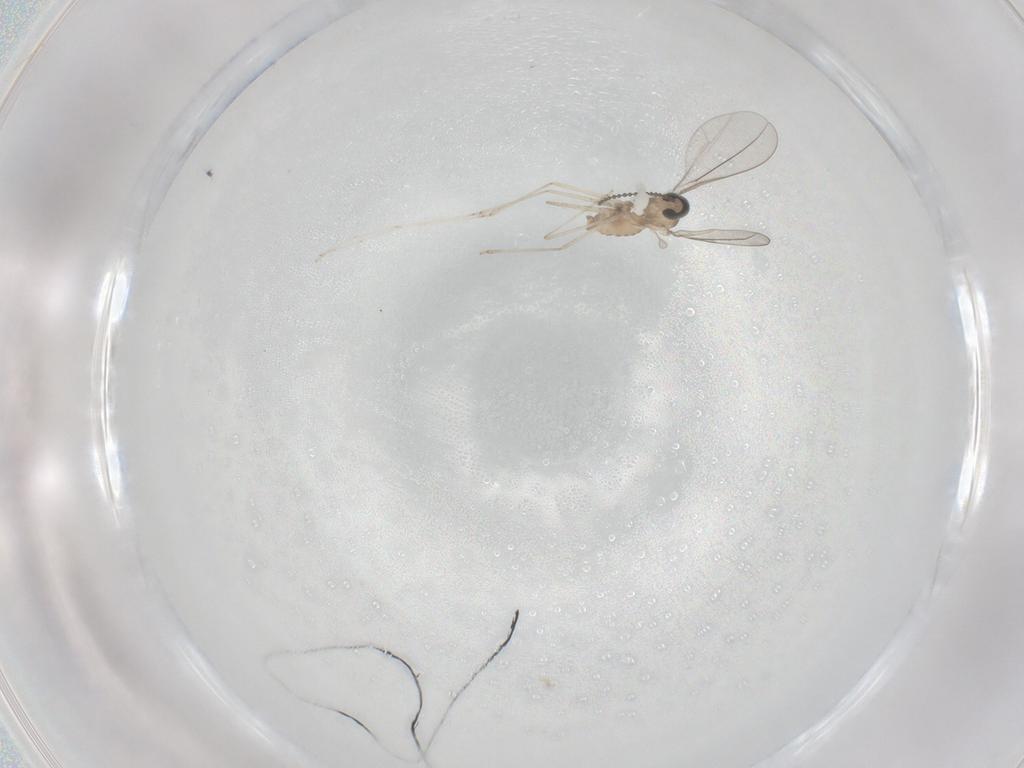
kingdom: Animalia
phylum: Arthropoda
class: Insecta
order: Diptera
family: Cecidomyiidae
